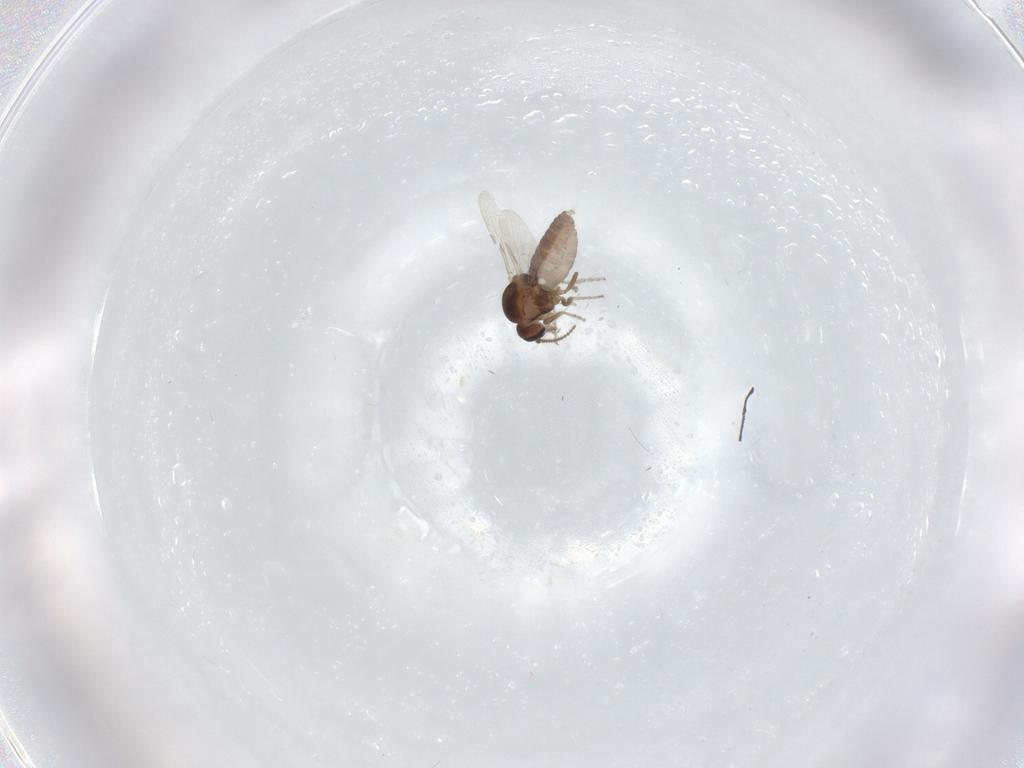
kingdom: Animalia
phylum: Arthropoda
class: Insecta
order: Diptera
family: Ceratopogonidae
